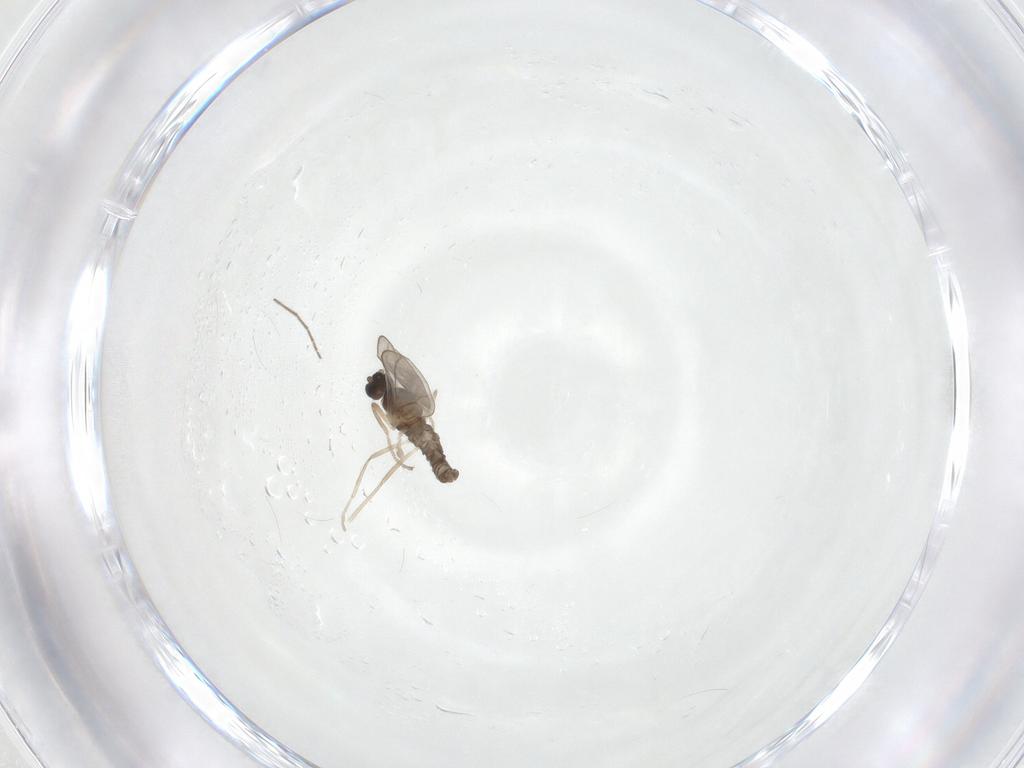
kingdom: Animalia
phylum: Arthropoda
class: Insecta
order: Diptera
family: Cecidomyiidae
